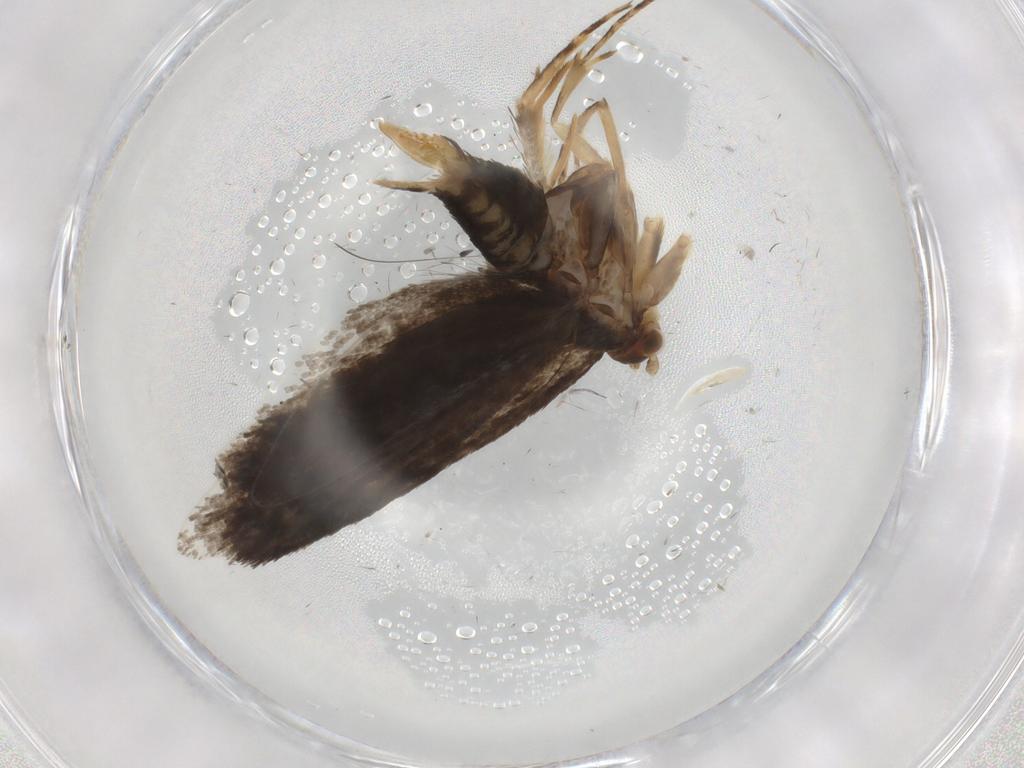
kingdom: Animalia
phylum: Arthropoda
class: Insecta
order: Lepidoptera
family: Tineidae
